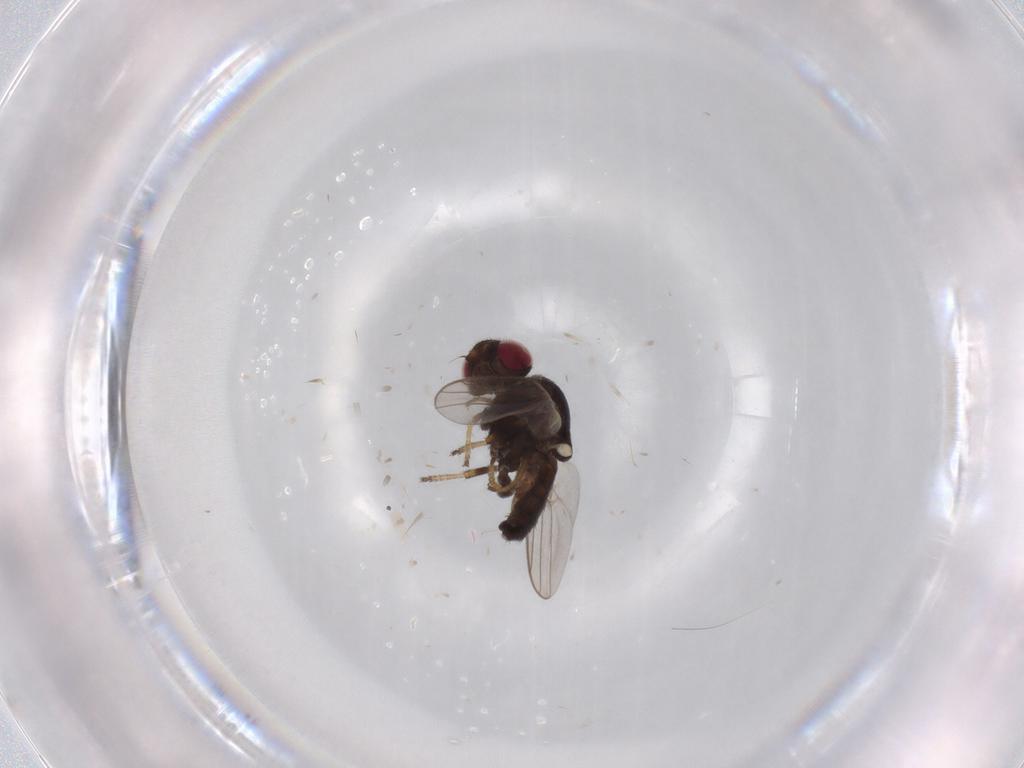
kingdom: Animalia
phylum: Arthropoda
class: Insecta
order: Diptera
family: Chloropidae
